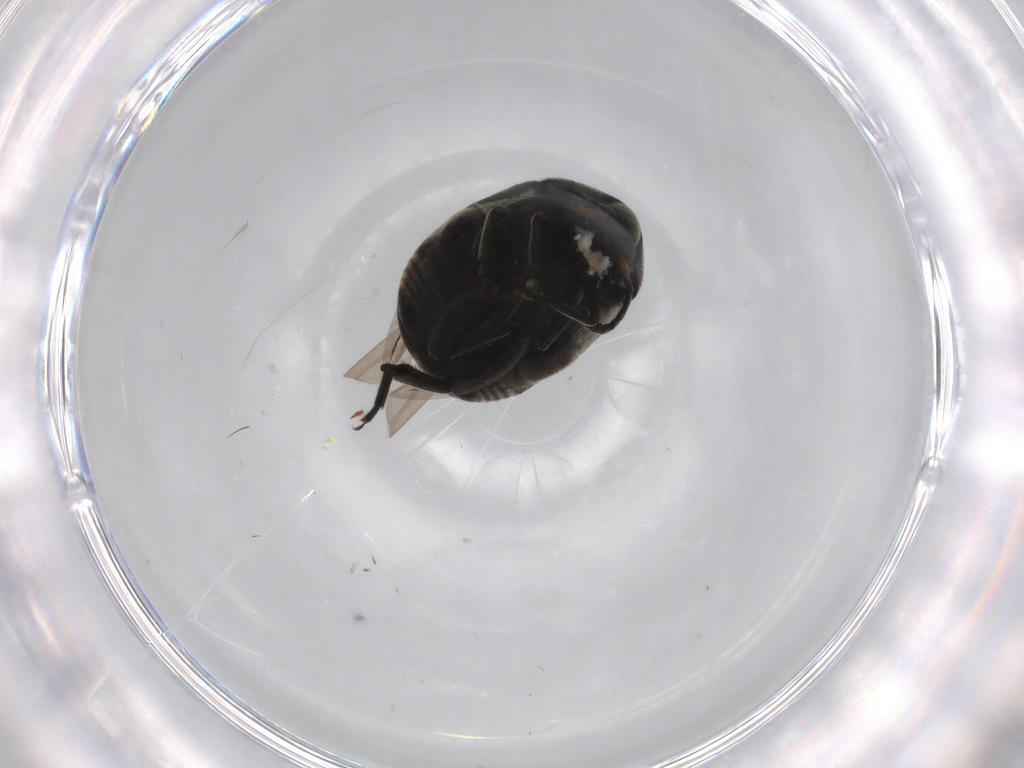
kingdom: Animalia
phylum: Arthropoda
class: Insecta
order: Coleoptera
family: Chrysomelidae
